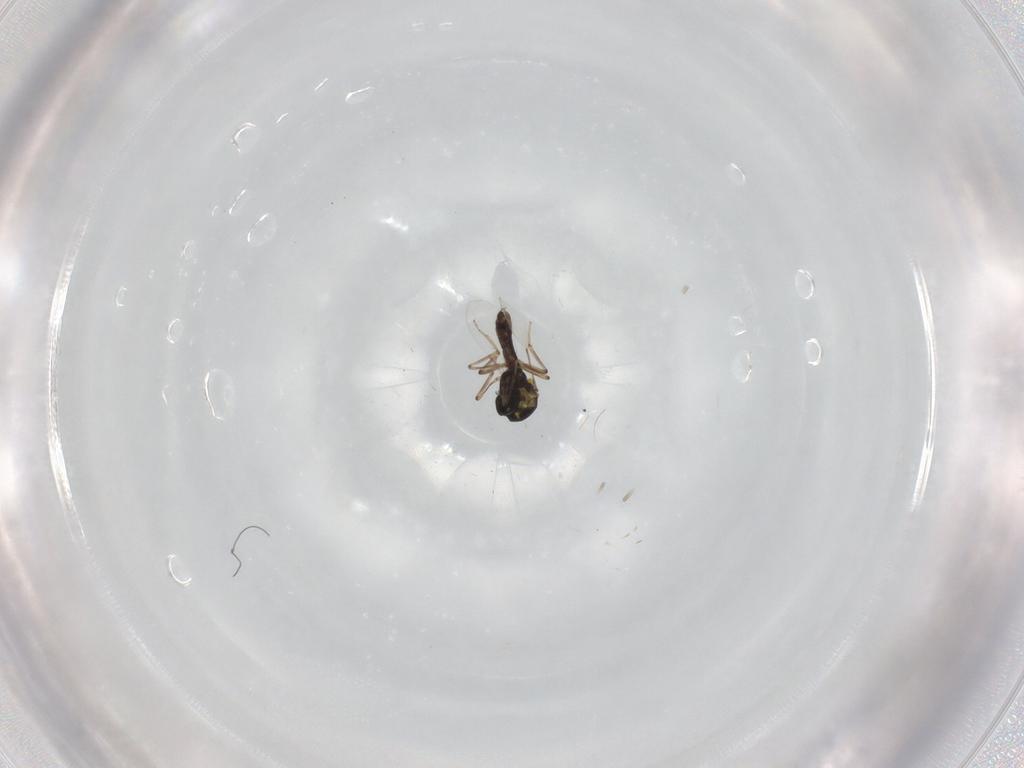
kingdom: Animalia
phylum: Arthropoda
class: Insecta
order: Diptera
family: Ceratopogonidae
